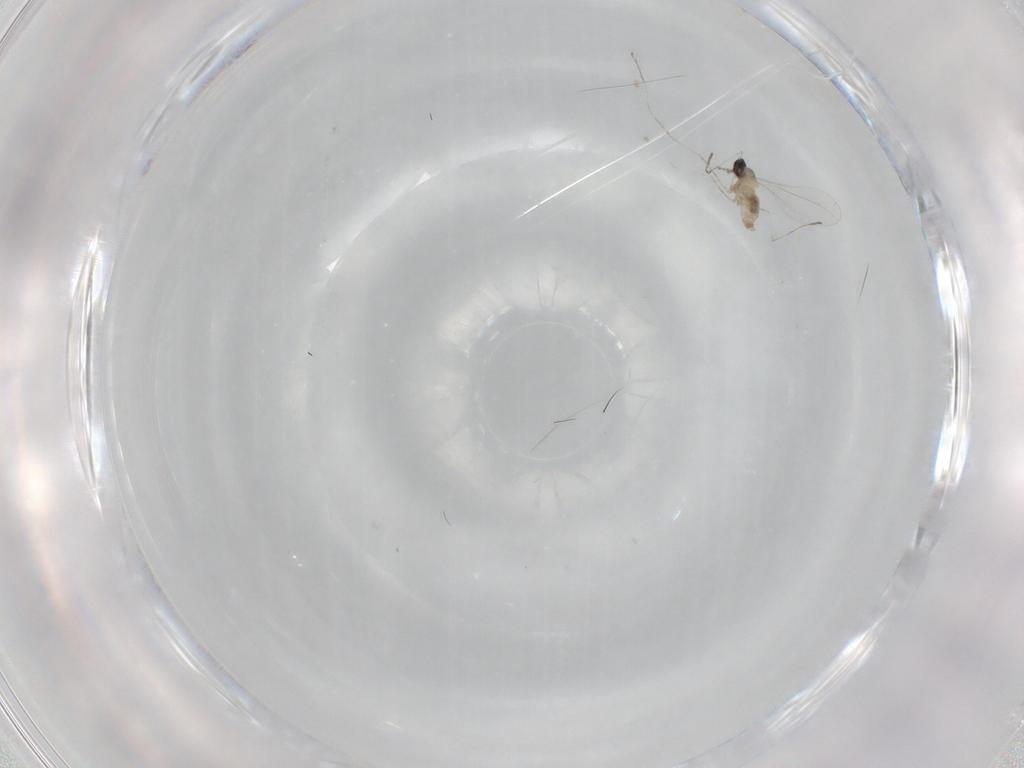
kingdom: Animalia
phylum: Arthropoda
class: Insecta
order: Diptera
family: Cecidomyiidae
